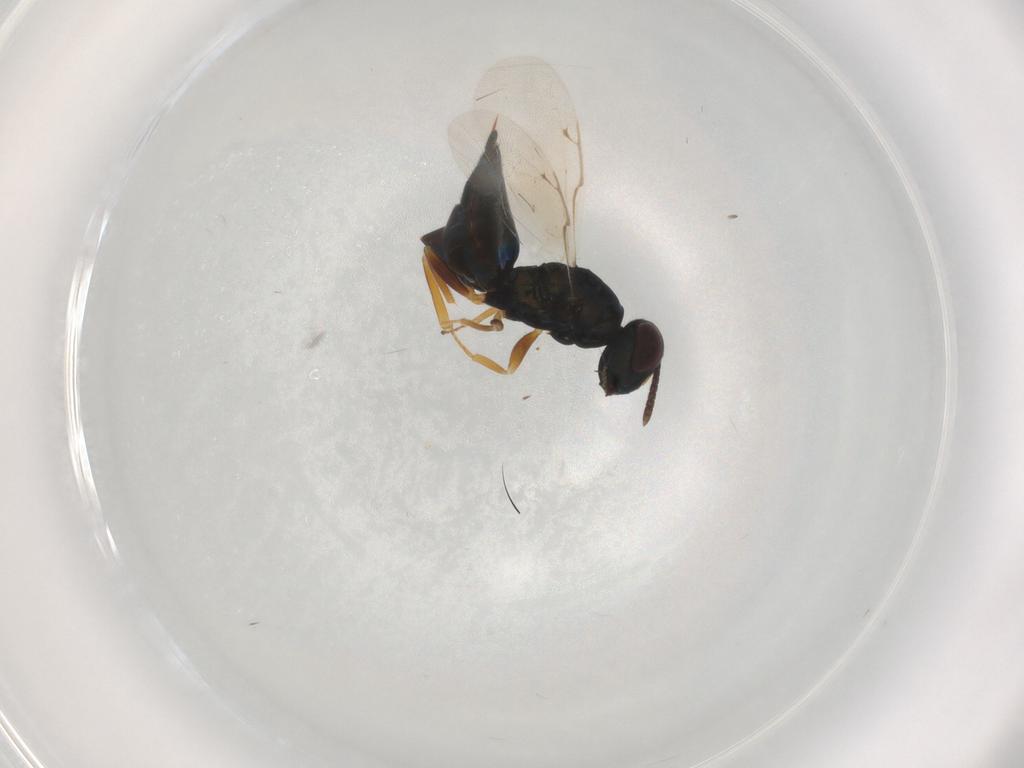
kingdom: Animalia
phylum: Arthropoda
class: Insecta
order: Hymenoptera
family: Pteromalidae
